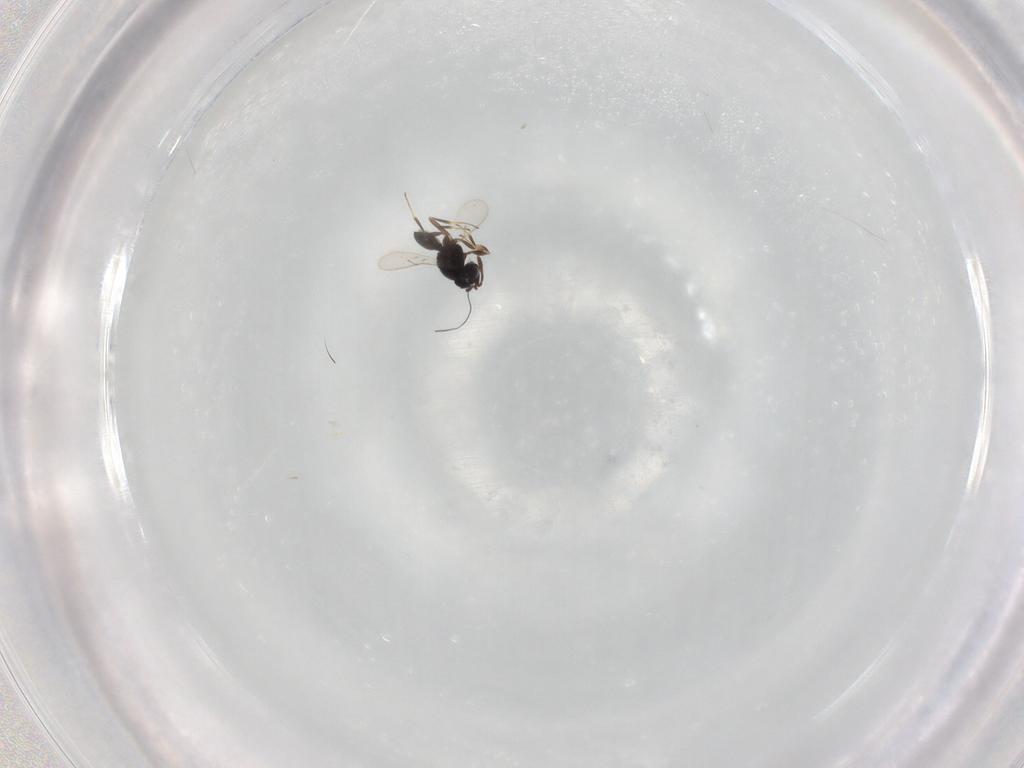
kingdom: Animalia
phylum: Arthropoda
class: Insecta
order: Hymenoptera
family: Scelionidae
